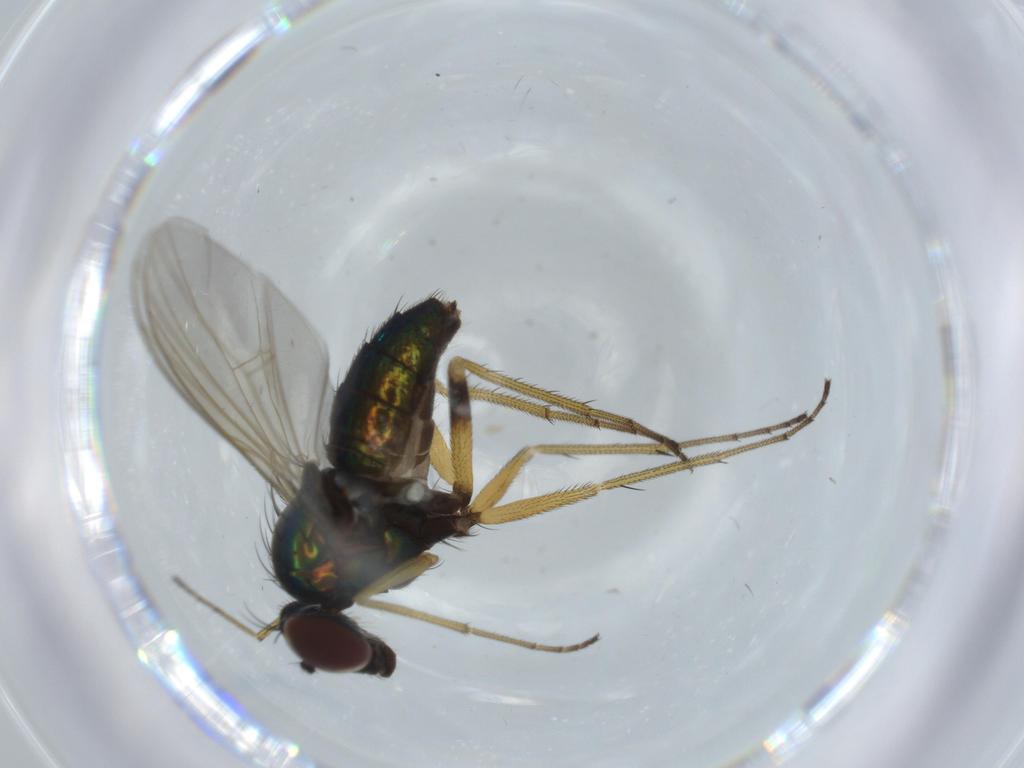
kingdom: Animalia
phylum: Arthropoda
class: Insecta
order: Diptera
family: Dolichopodidae
